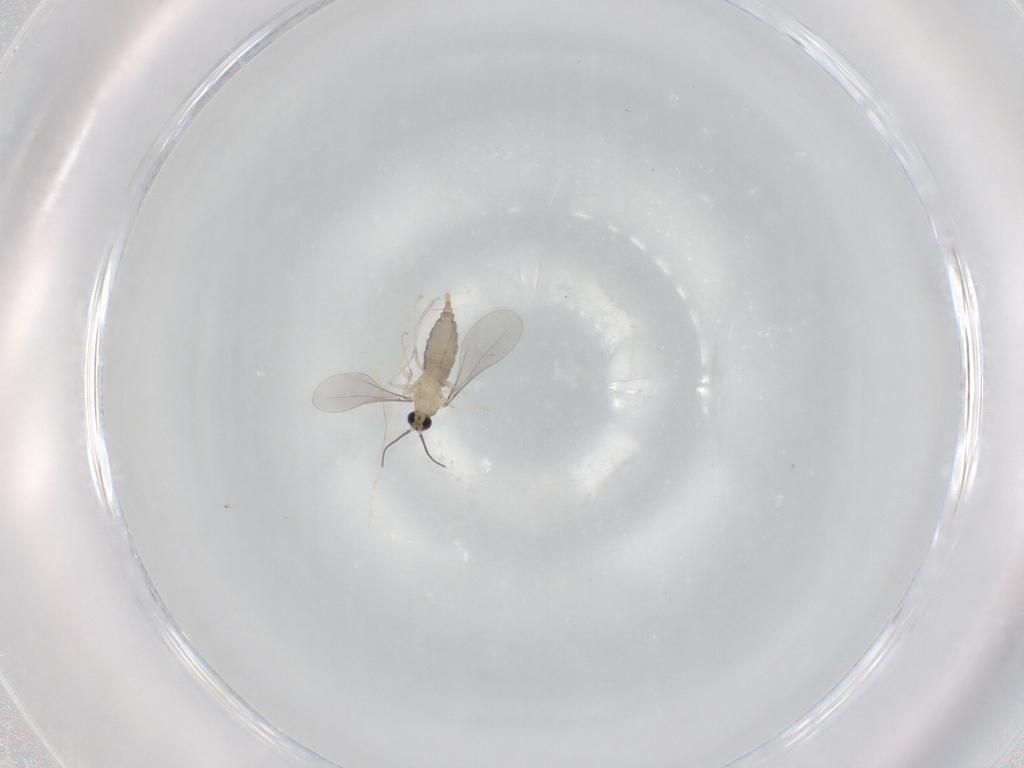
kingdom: Animalia
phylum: Arthropoda
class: Insecta
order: Diptera
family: Cecidomyiidae
